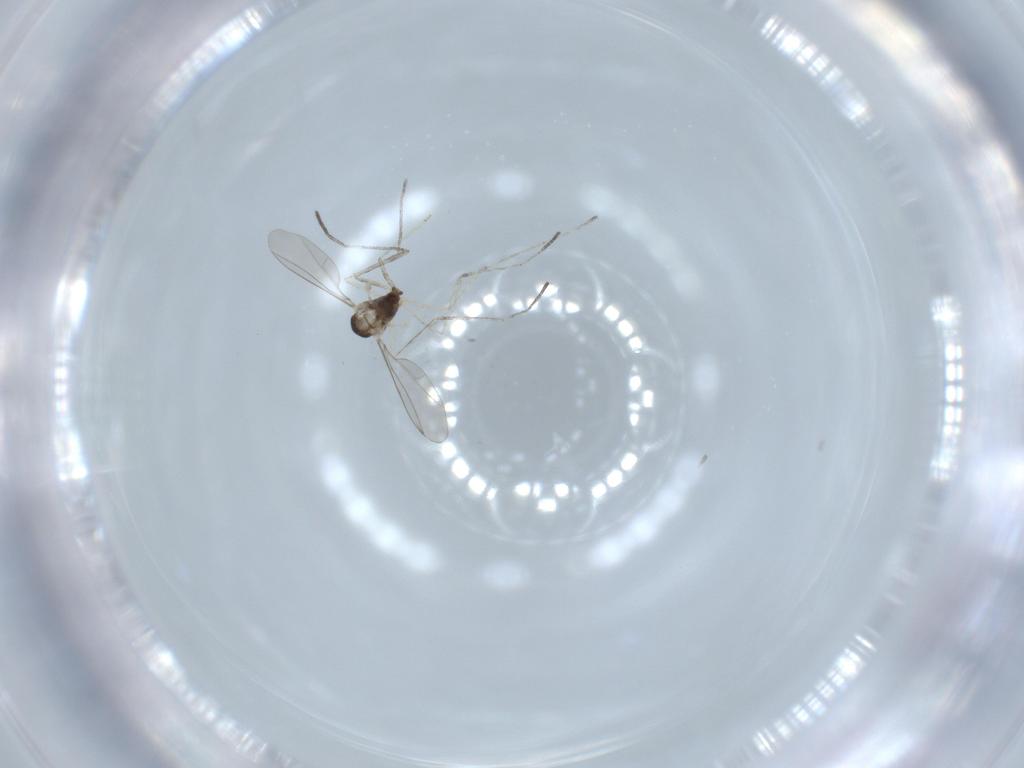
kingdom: Animalia
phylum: Arthropoda
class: Insecta
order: Diptera
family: Cecidomyiidae
